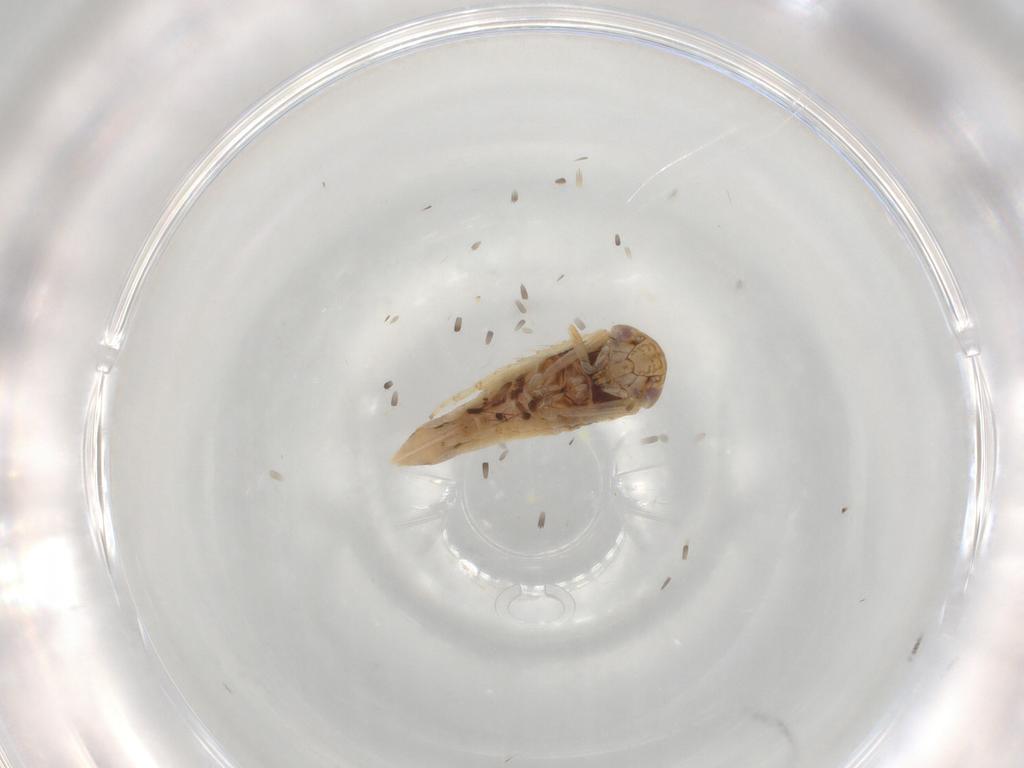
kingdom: Animalia
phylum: Arthropoda
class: Insecta
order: Hemiptera
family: Cicadellidae
